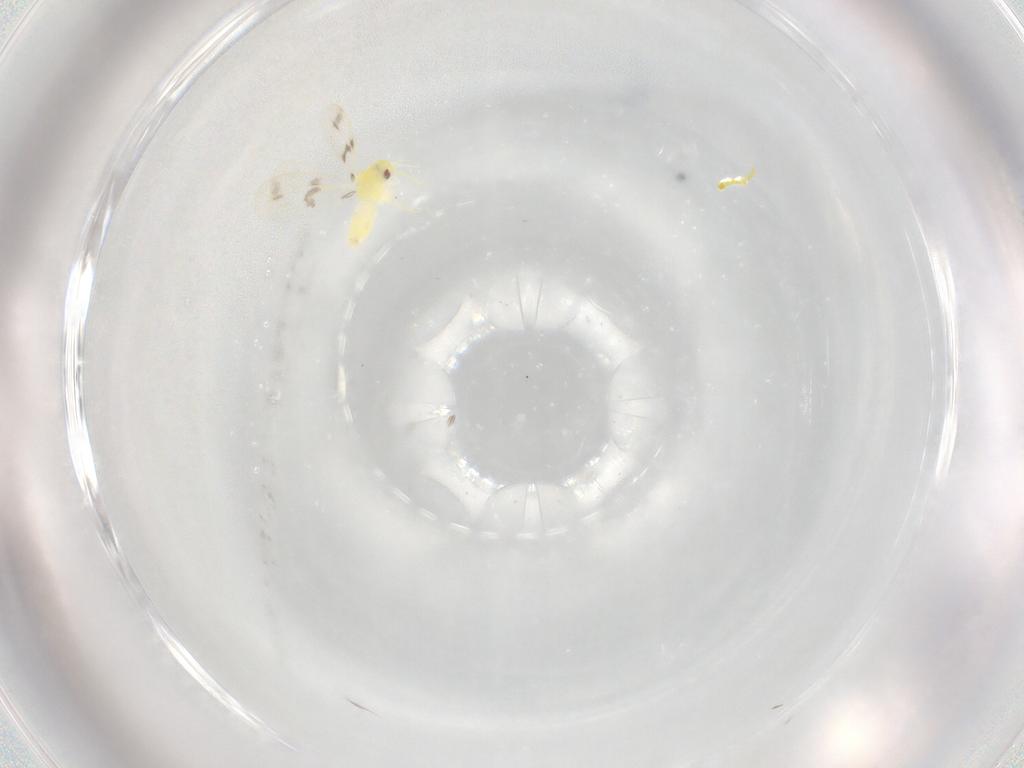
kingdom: Animalia
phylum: Arthropoda
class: Insecta
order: Hemiptera
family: Aleyrodidae
